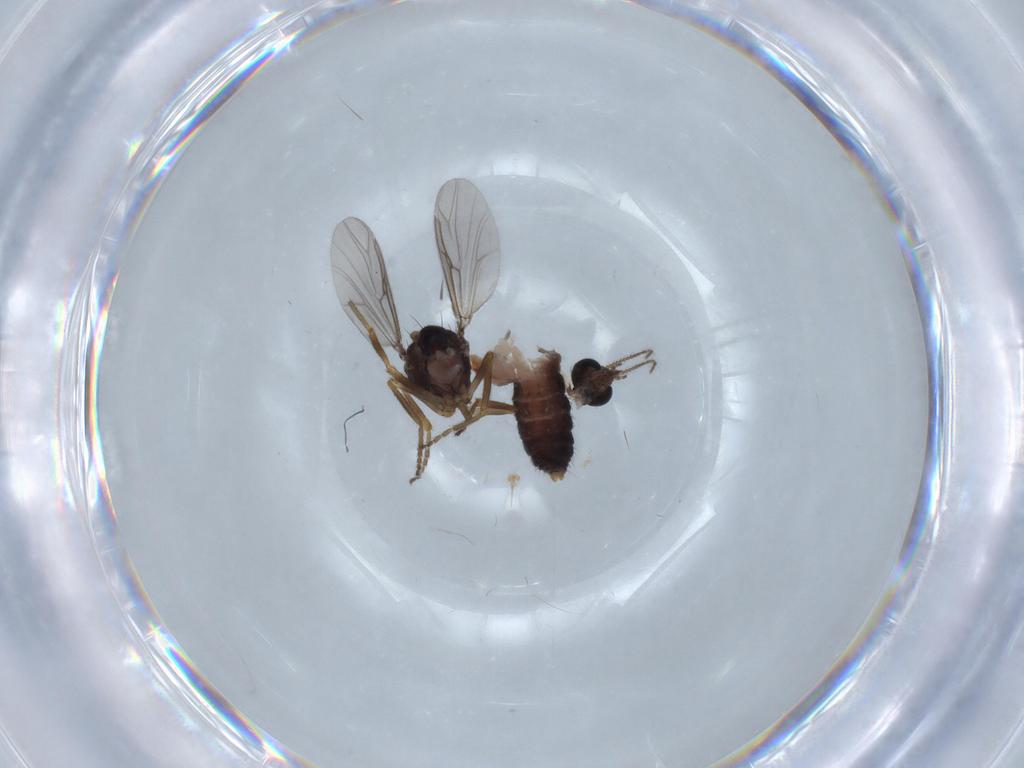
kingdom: Animalia
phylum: Arthropoda
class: Insecta
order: Diptera
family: Ceratopogonidae
